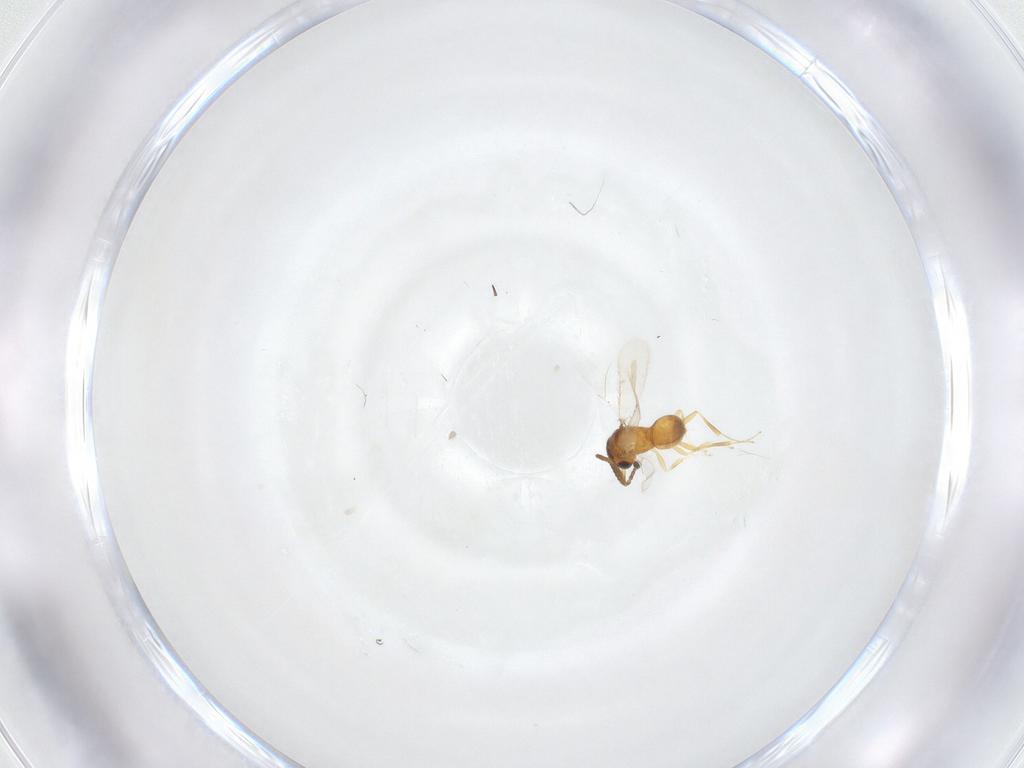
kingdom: Animalia
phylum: Arthropoda
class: Insecta
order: Hymenoptera
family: Scelionidae
